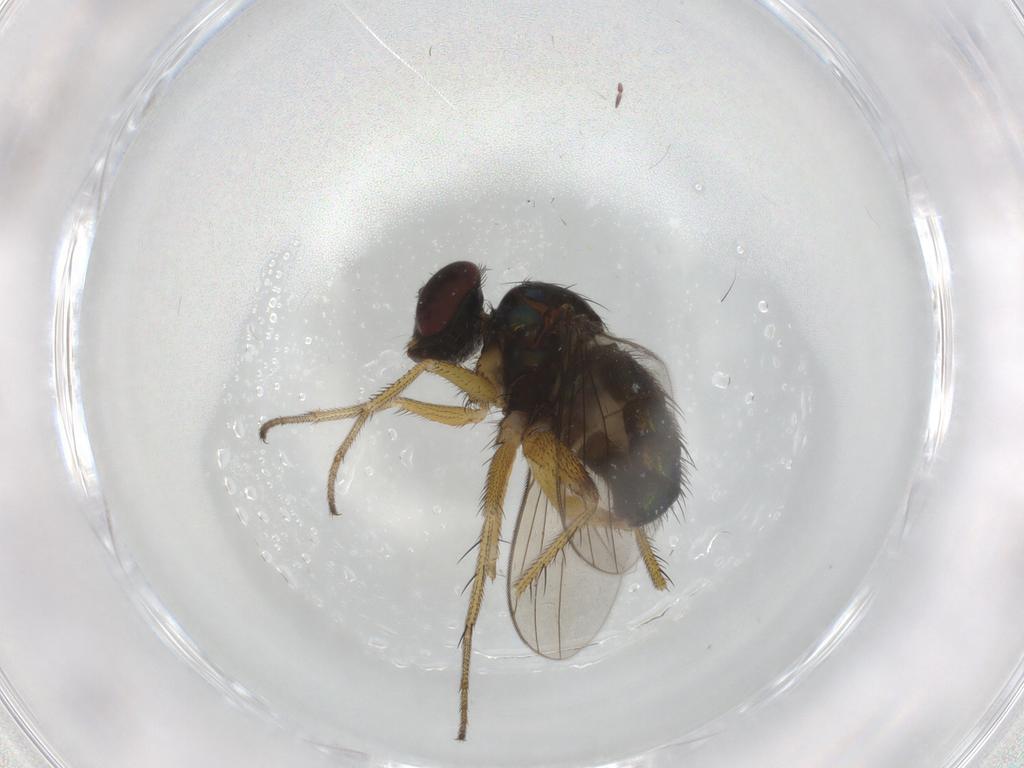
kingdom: Animalia
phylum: Arthropoda
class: Insecta
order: Diptera
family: Dolichopodidae
